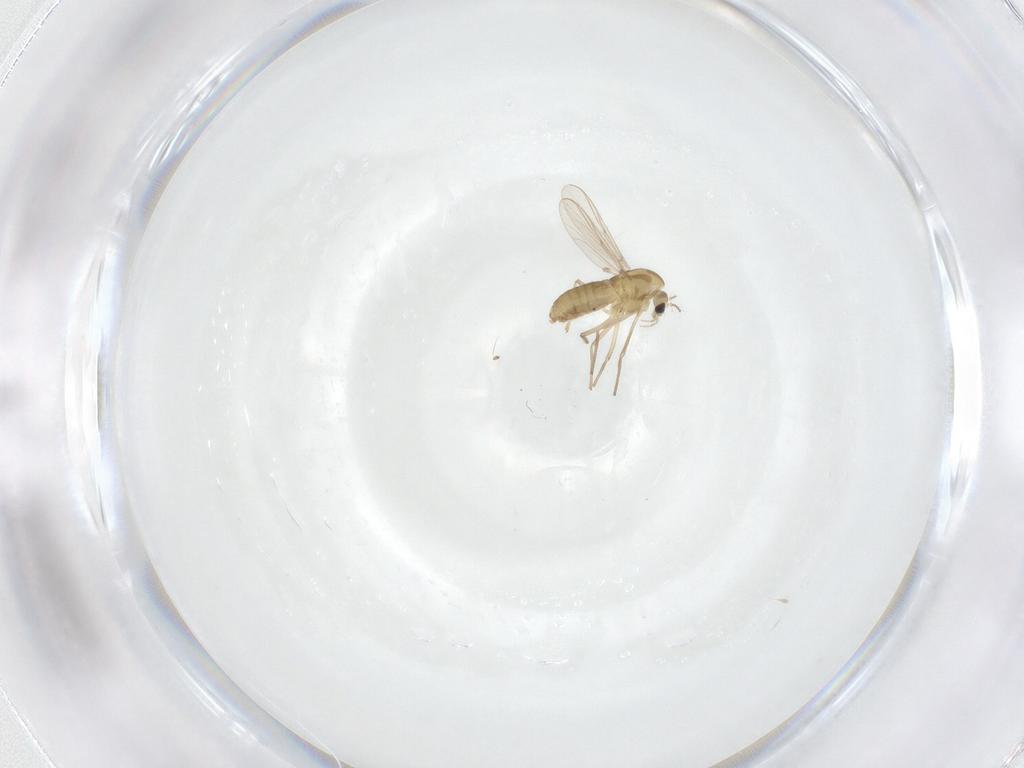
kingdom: Animalia
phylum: Arthropoda
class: Insecta
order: Diptera
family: Chironomidae
